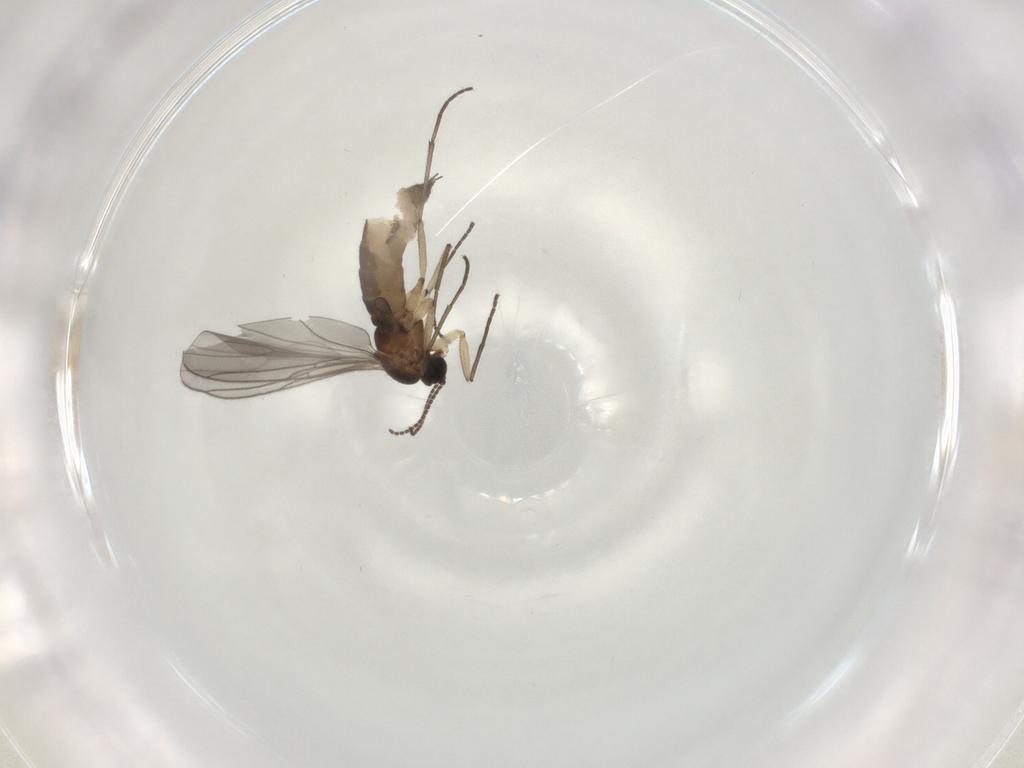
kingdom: Animalia
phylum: Arthropoda
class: Insecta
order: Diptera
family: Sciaridae
